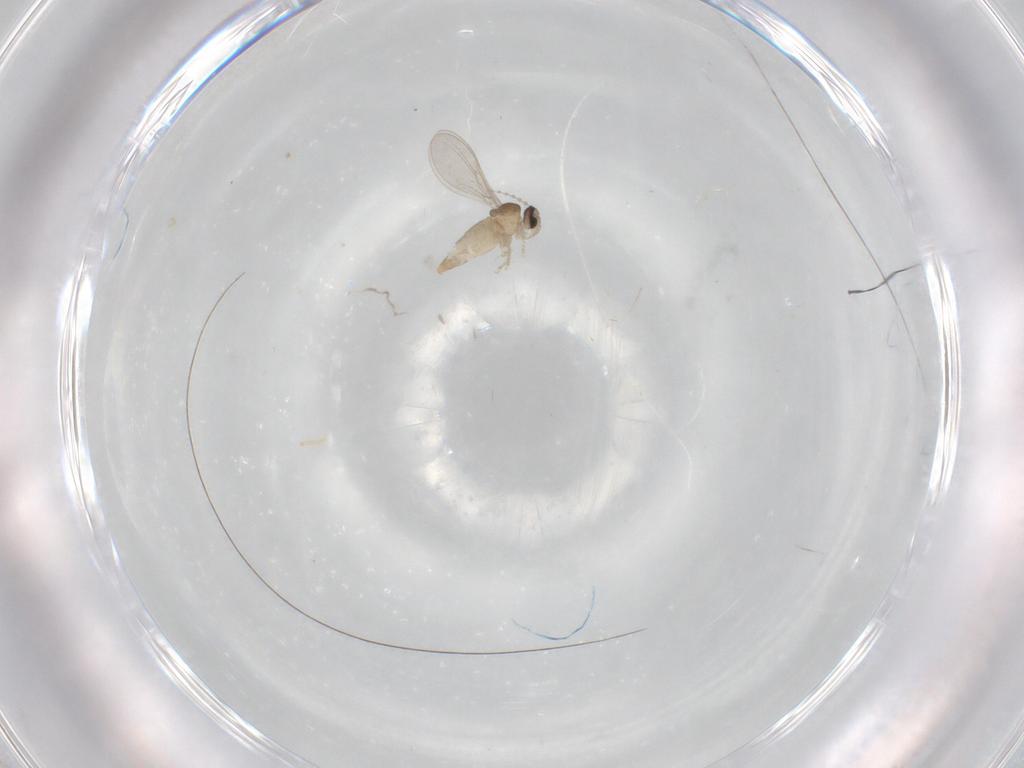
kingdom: Animalia
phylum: Arthropoda
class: Insecta
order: Diptera
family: Cecidomyiidae
